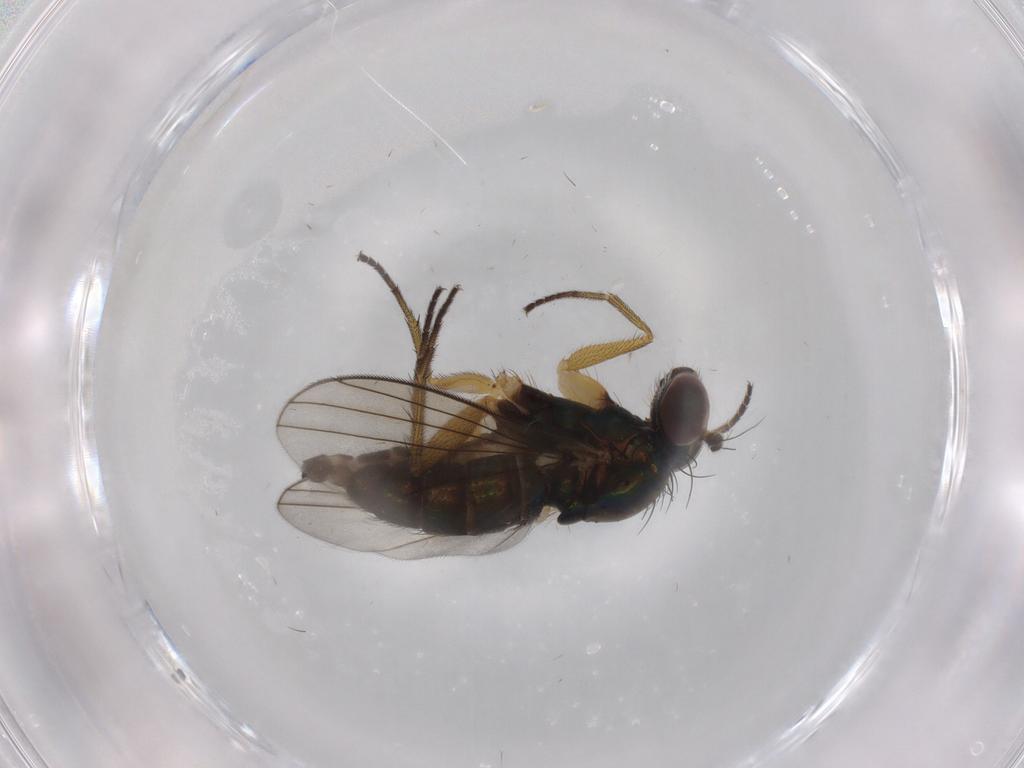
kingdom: Animalia
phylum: Arthropoda
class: Insecta
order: Diptera
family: Dolichopodidae
